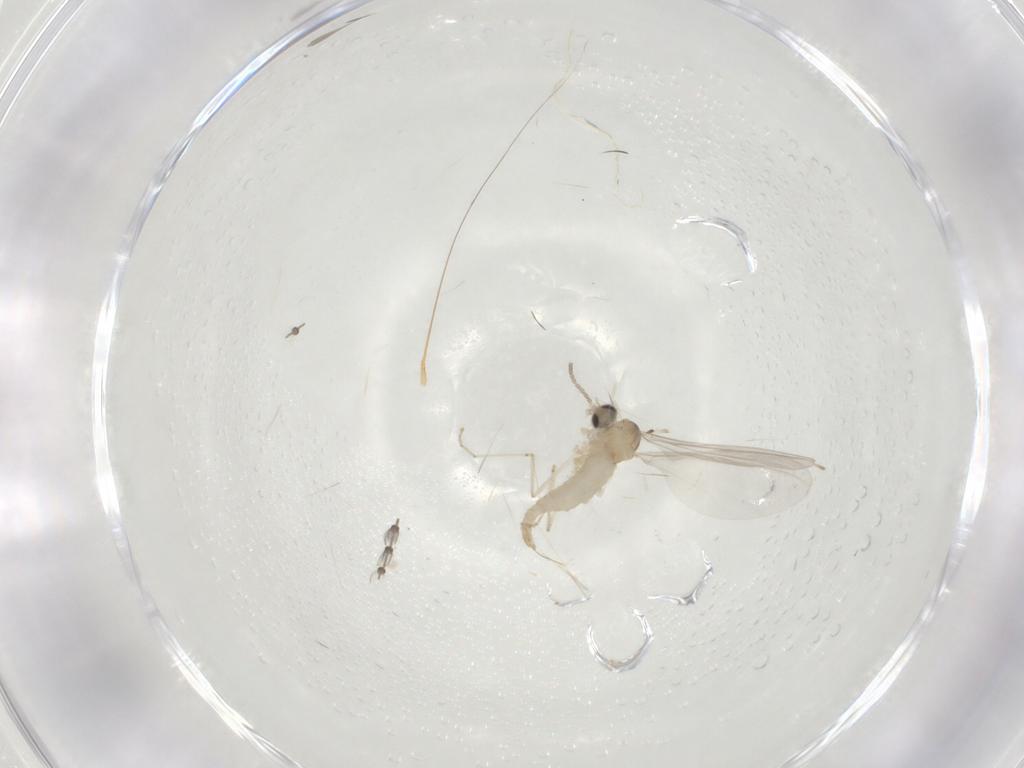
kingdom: Animalia
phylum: Arthropoda
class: Insecta
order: Diptera
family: Cecidomyiidae
